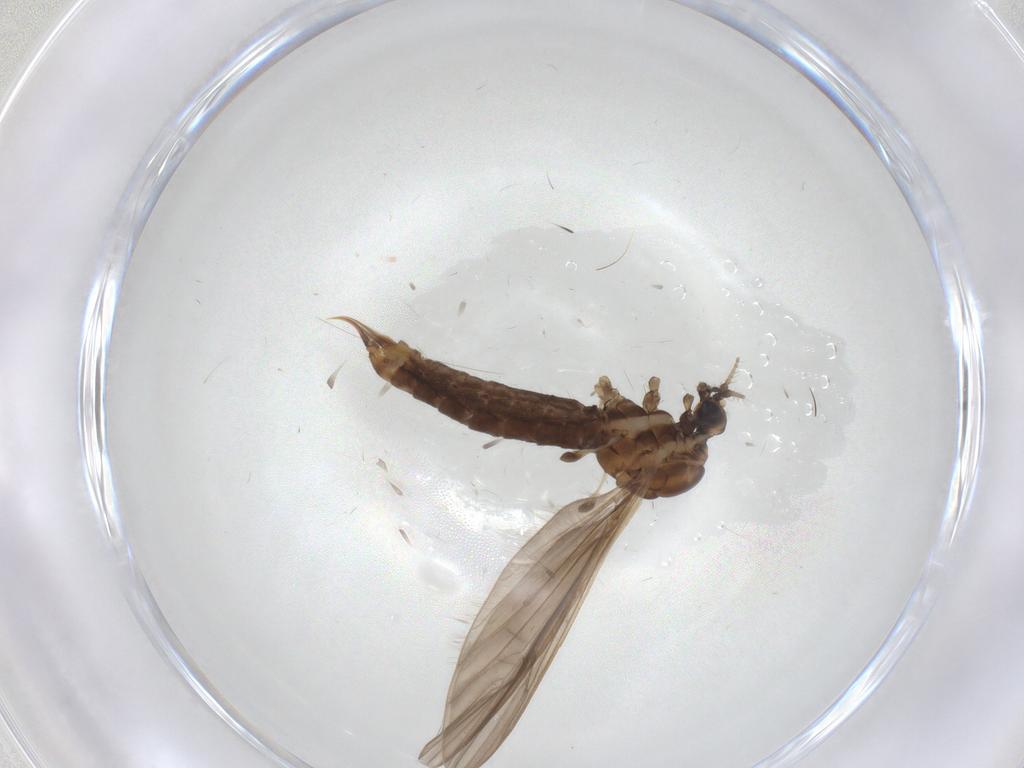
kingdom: Animalia
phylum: Arthropoda
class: Insecta
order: Diptera
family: Limoniidae
